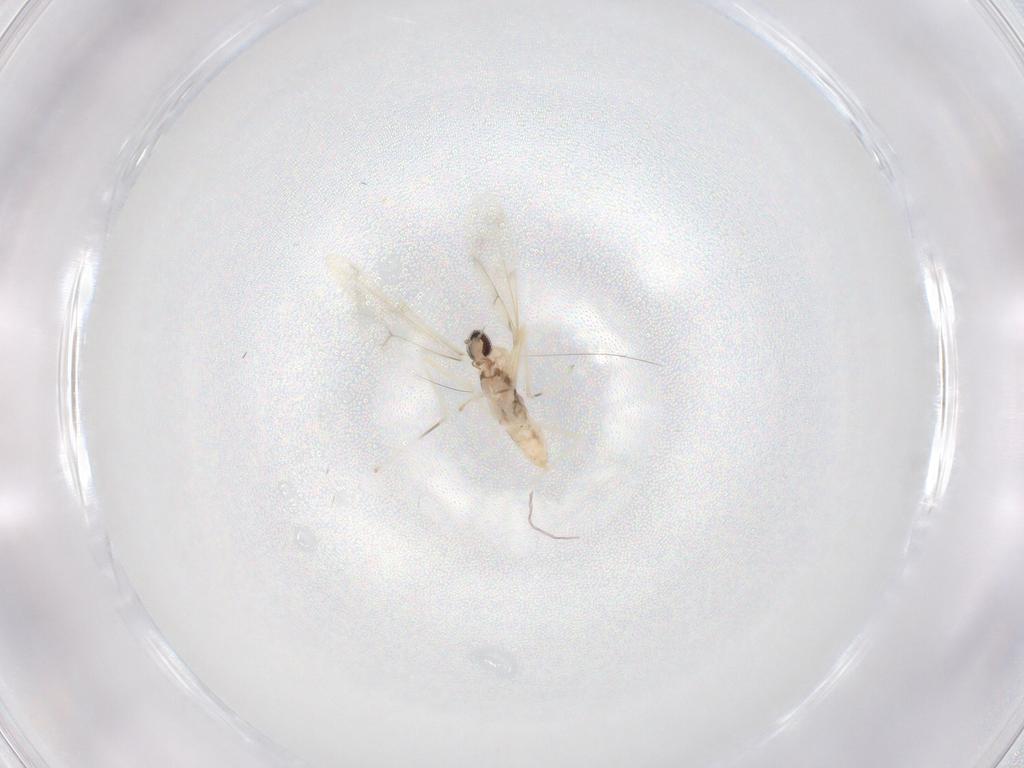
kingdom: Animalia
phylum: Arthropoda
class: Insecta
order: Diptera
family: Cecidomyiidae
